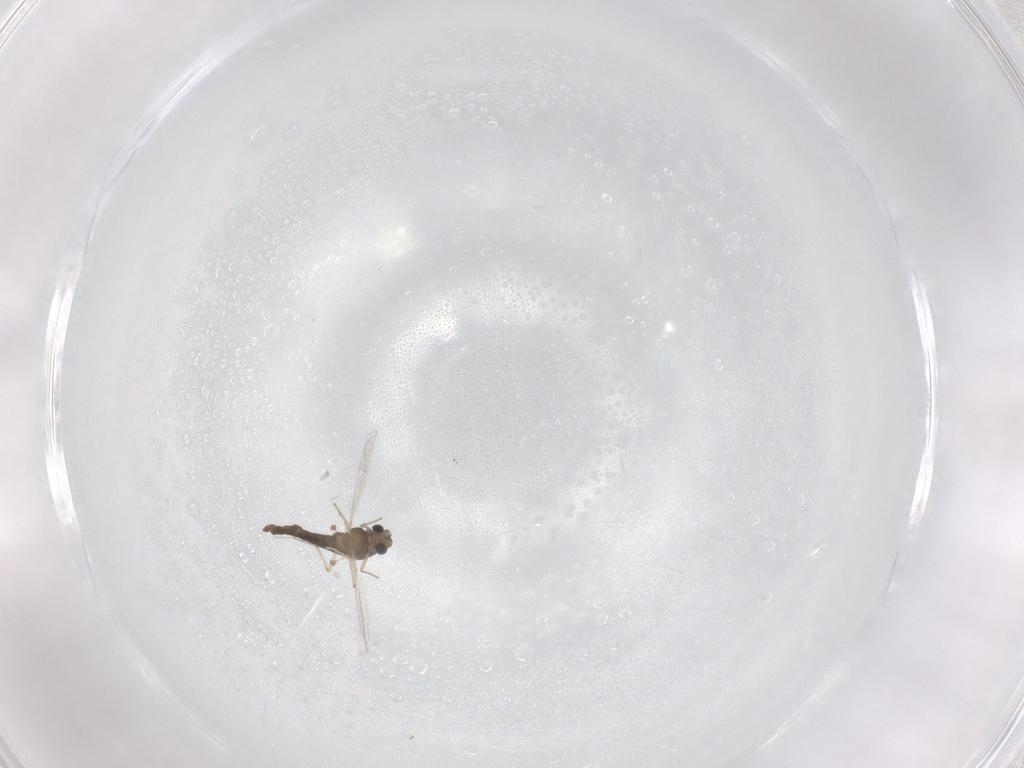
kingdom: Animalia
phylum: Arthropoda
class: Insecta
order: Diptera
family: Chironomidae
